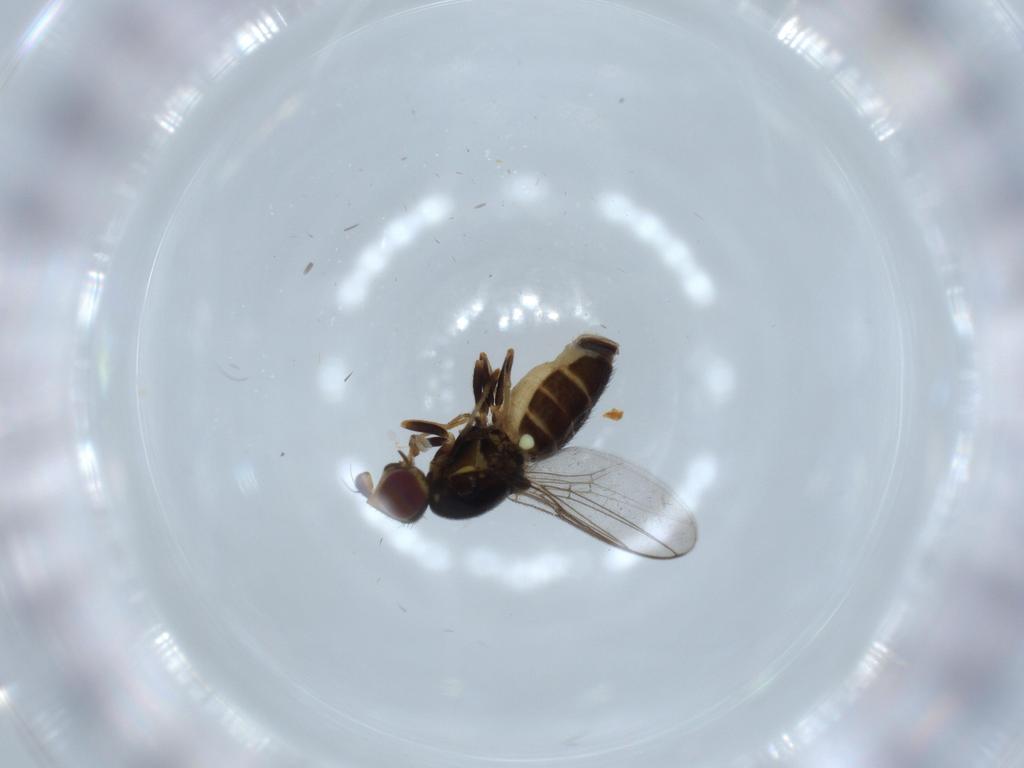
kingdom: Animalia
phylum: Arthropoda
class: Insecta
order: Diptera
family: Chloropidae
